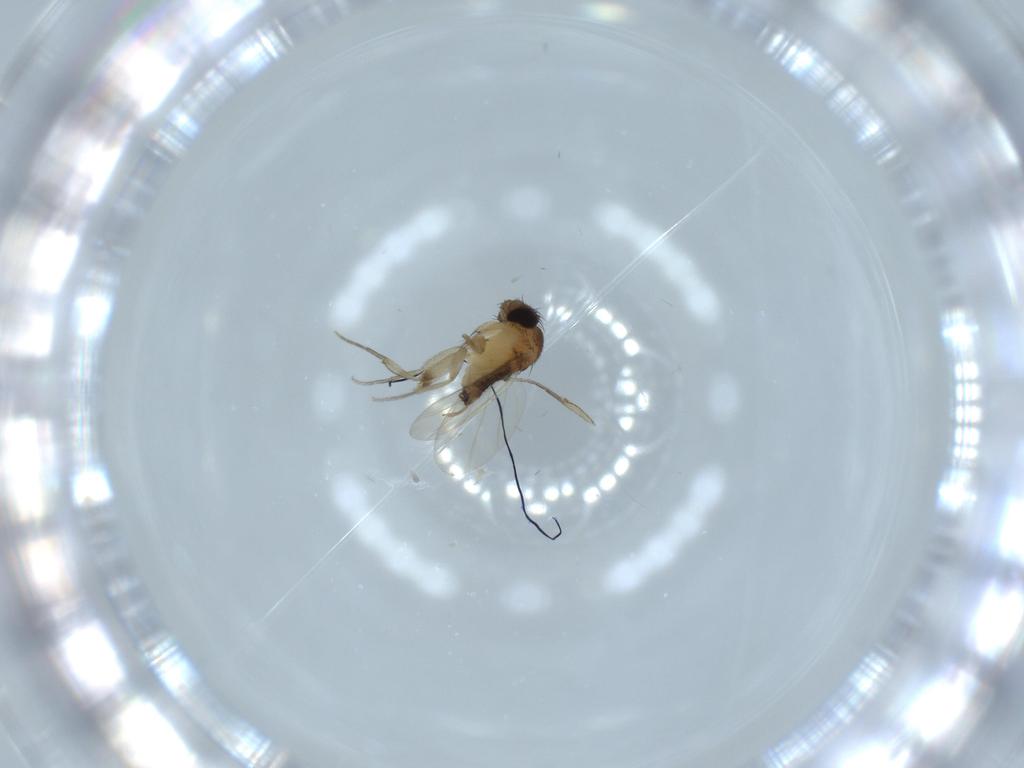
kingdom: Animalia
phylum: Arthropoda
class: Insecta
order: Diptera
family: Phoridae
